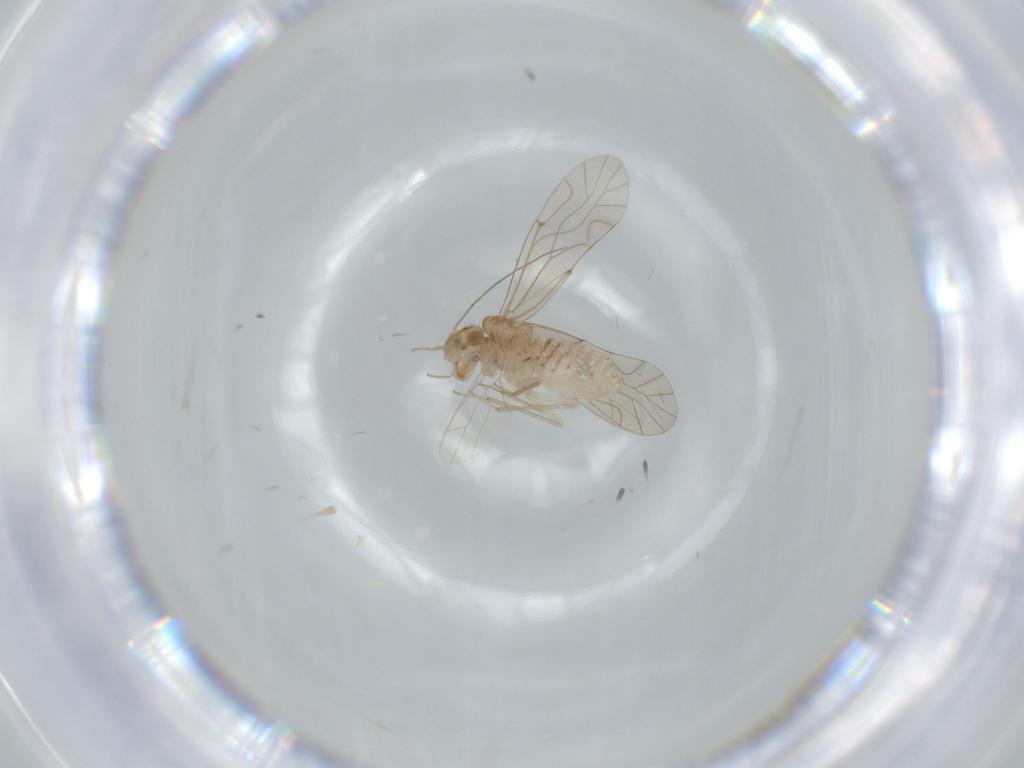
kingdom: Animalia
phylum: Arthropoda
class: Insecta
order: Psocodea
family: Lachesillidae
